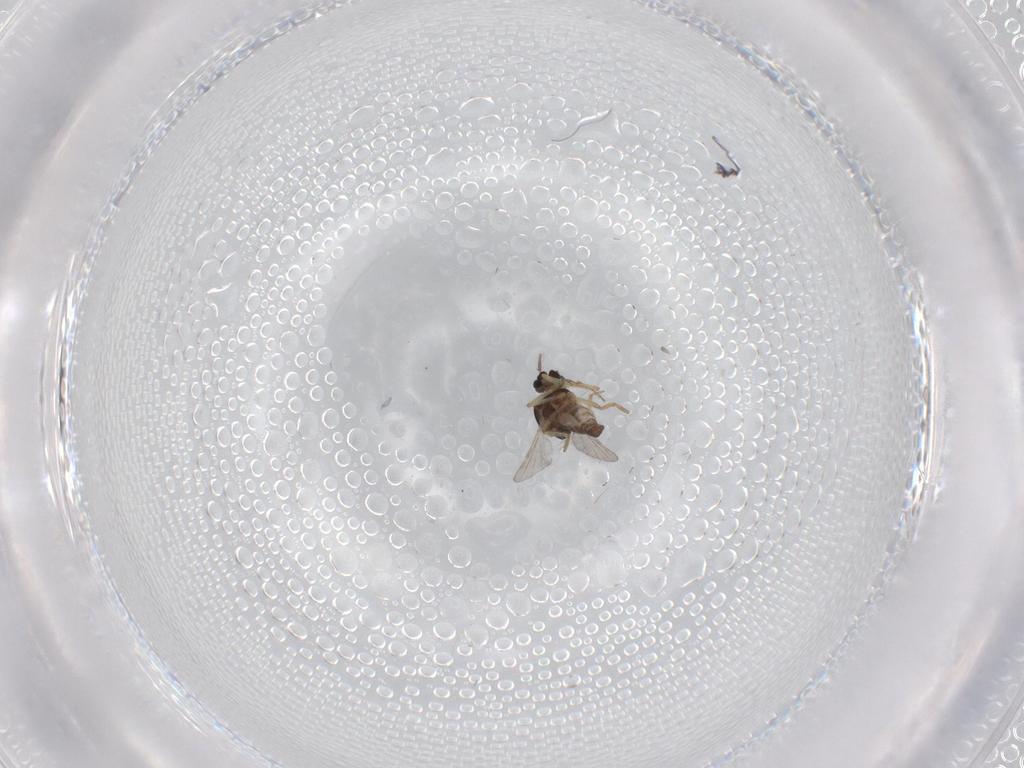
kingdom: Animalia
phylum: Arthropoda
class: Insecta
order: Diptera
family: Ceratopogonidae
